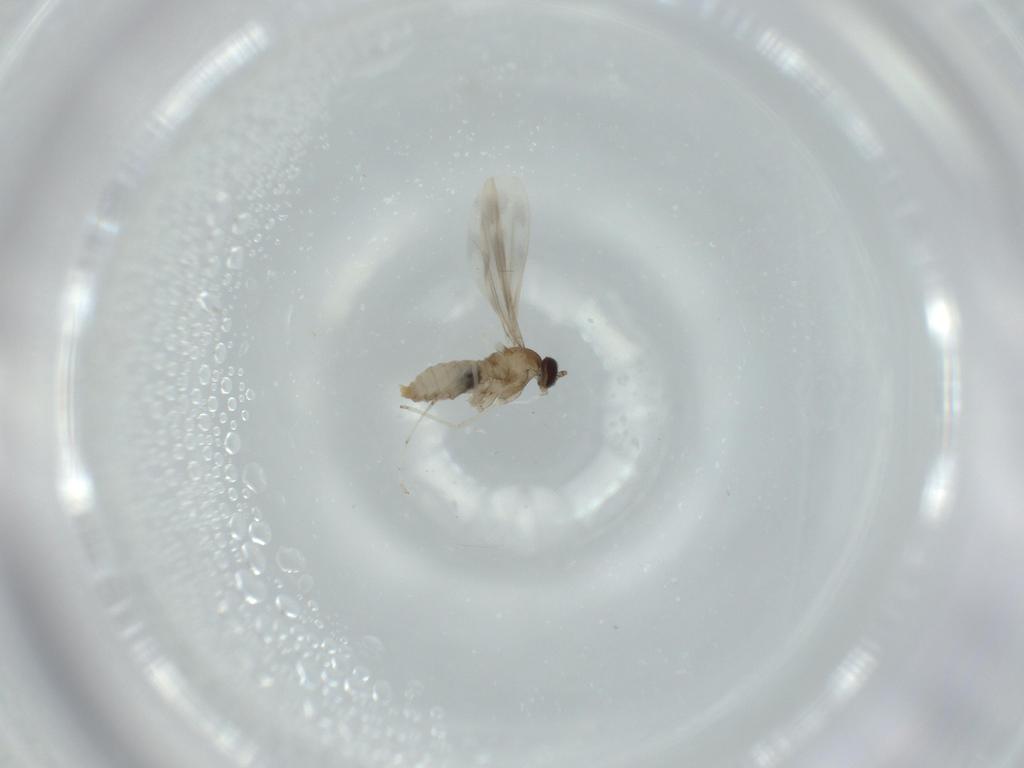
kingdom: Animalia
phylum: Arthropoda
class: Insecta
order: Diptera
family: Cecidomyiidae
